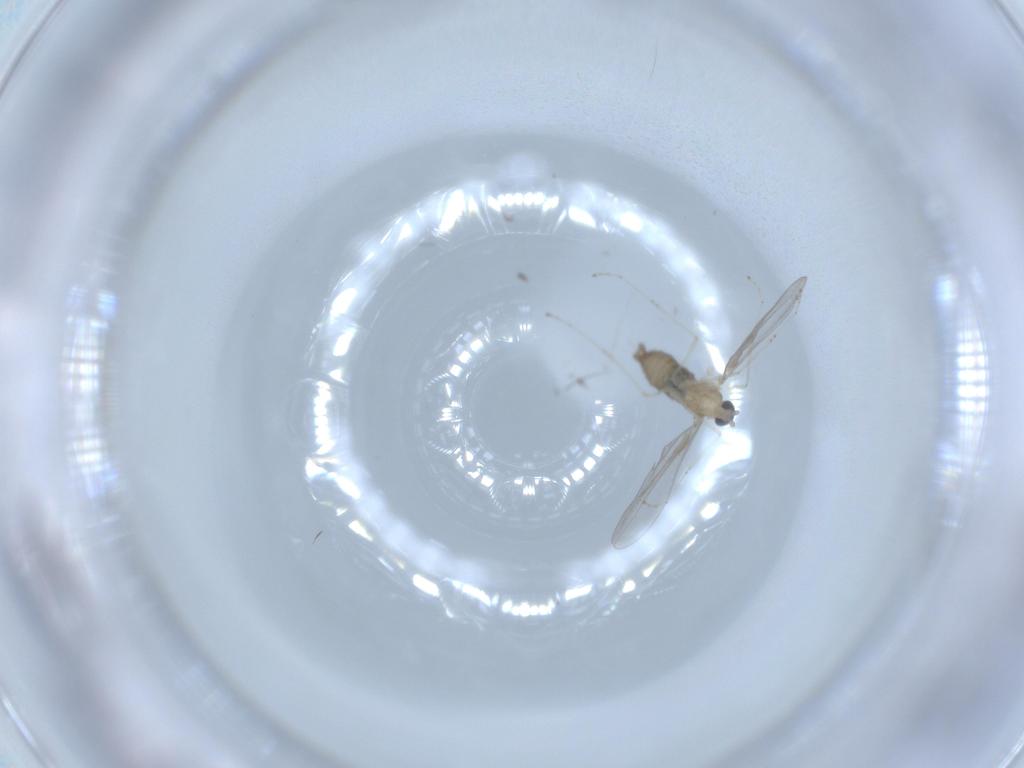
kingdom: Animalia
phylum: Arthropoda
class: Insecta
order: Diptera
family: Cecidomyiidae
